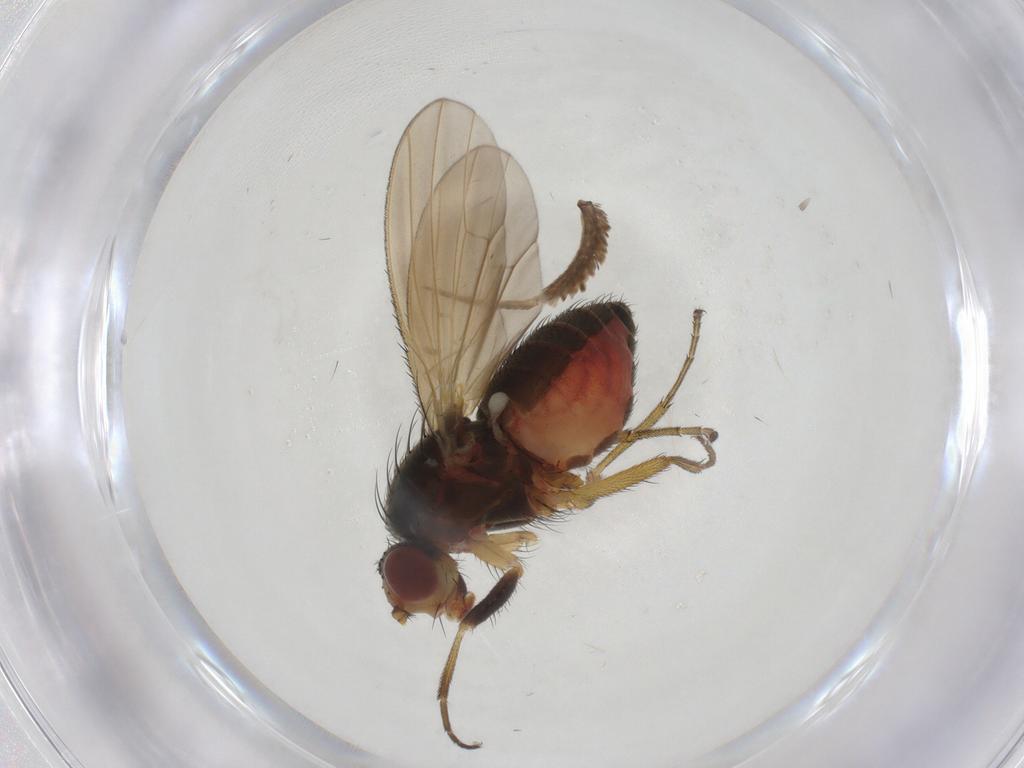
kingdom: Animalia
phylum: Arthropoda
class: Insecta
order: Diptera
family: Heleomyzidae
